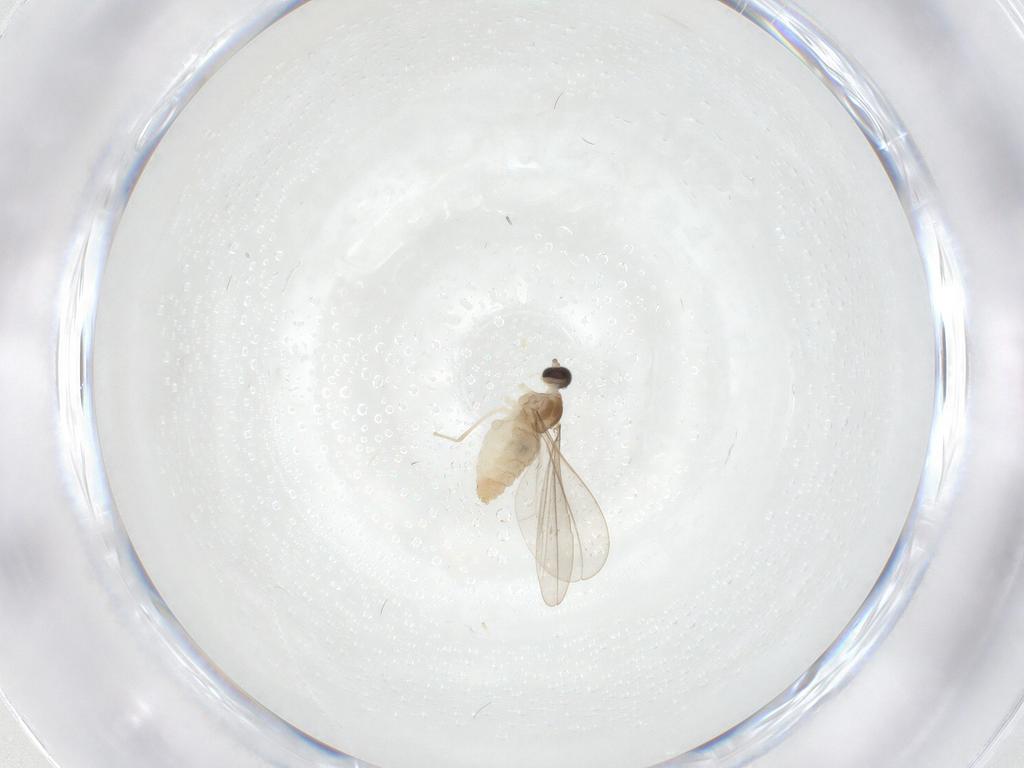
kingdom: Animalia
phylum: Arthropoda
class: Insecta
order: Diptera
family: Cecidomyiidae
